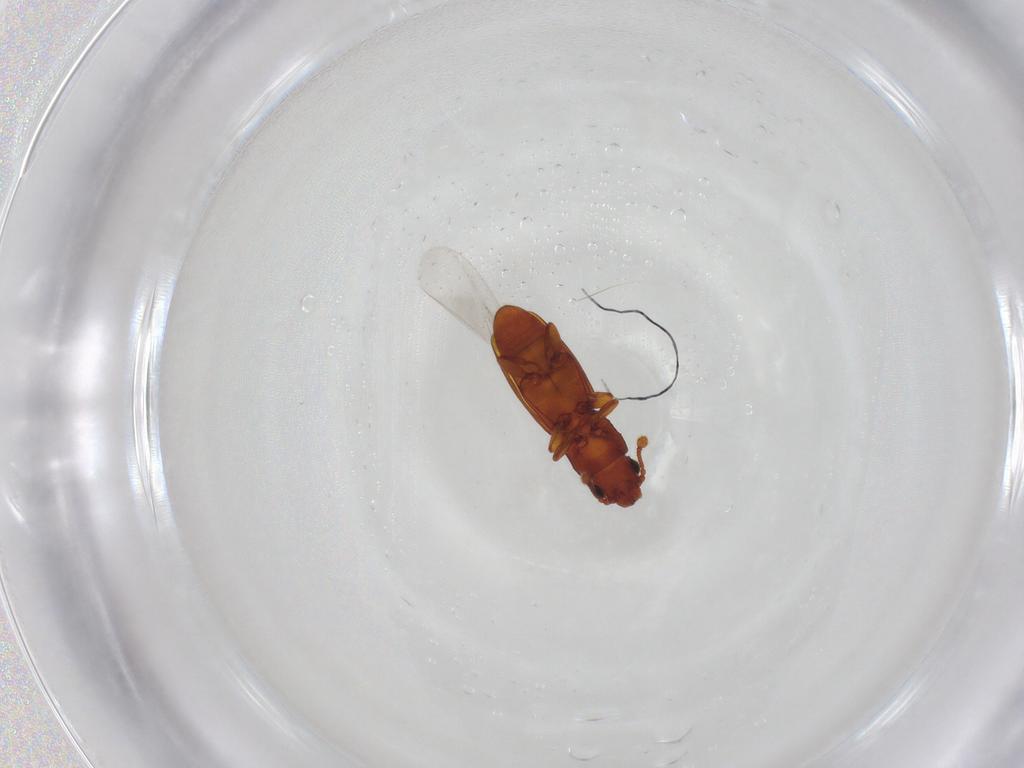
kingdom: Animalia
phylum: Arthropoda
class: Insecta
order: Coleoptera
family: Monotomidae
